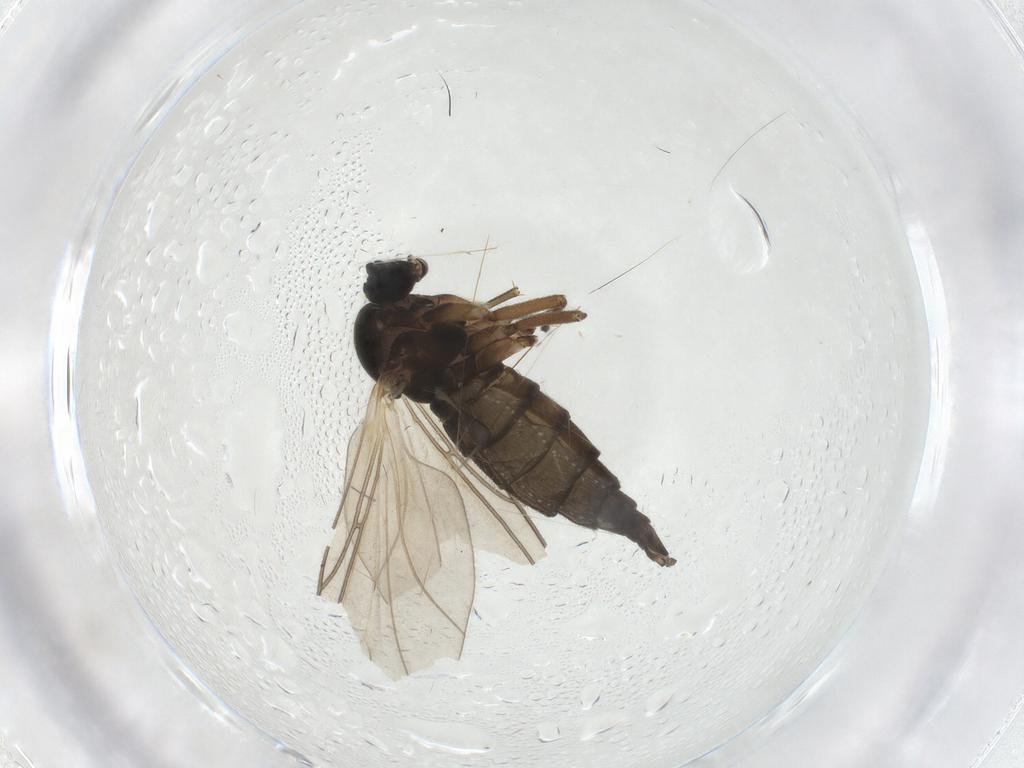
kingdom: Animalia
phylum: Arthropoda
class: Insecta
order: Diptera
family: Sciaridae
